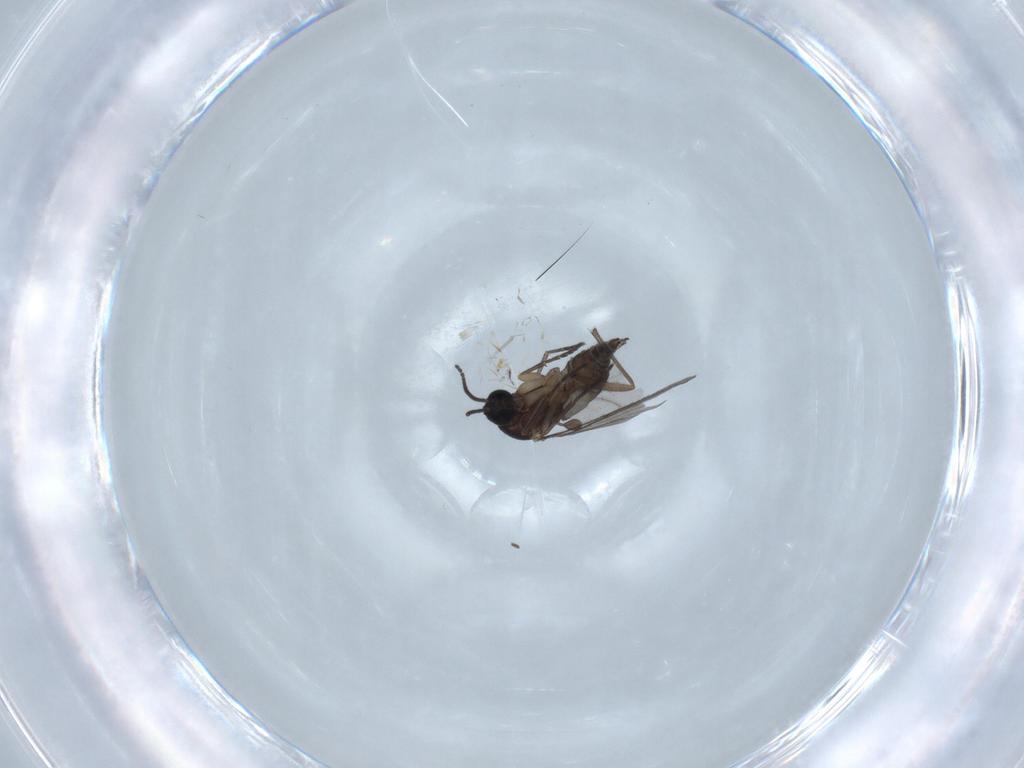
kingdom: Animalia
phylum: Arthropoda
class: Insecta
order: Diptera
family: Sciaridae
